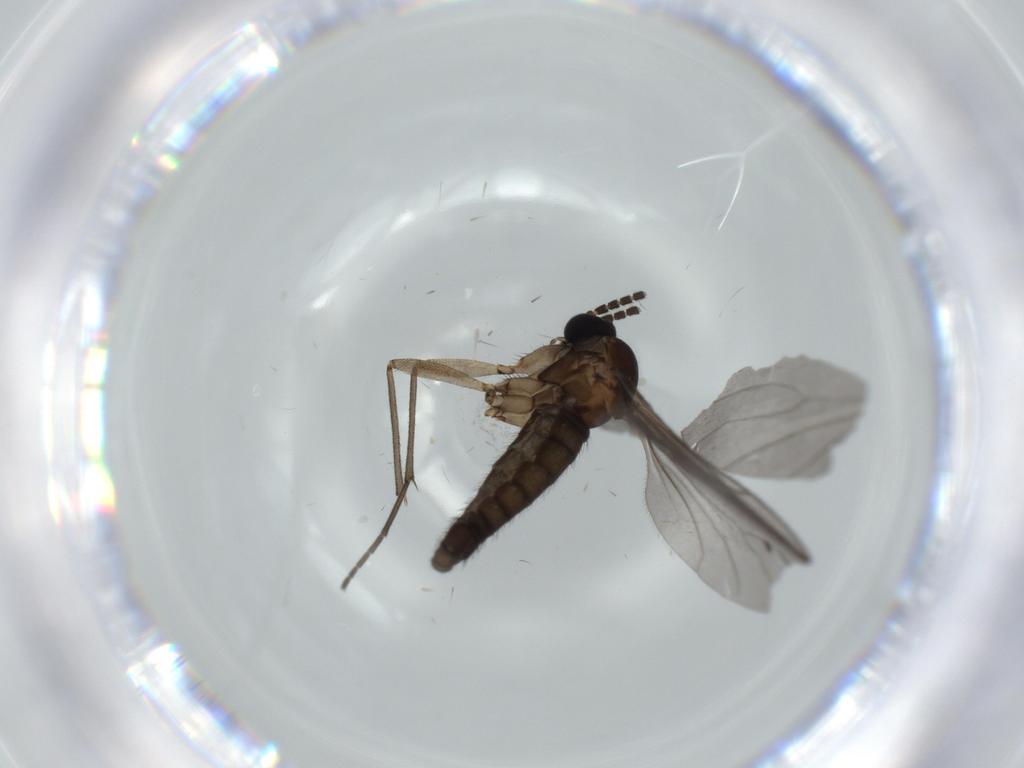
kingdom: Animalia
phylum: Arthropoda
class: Insecta
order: Diptera
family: Sciaridae
